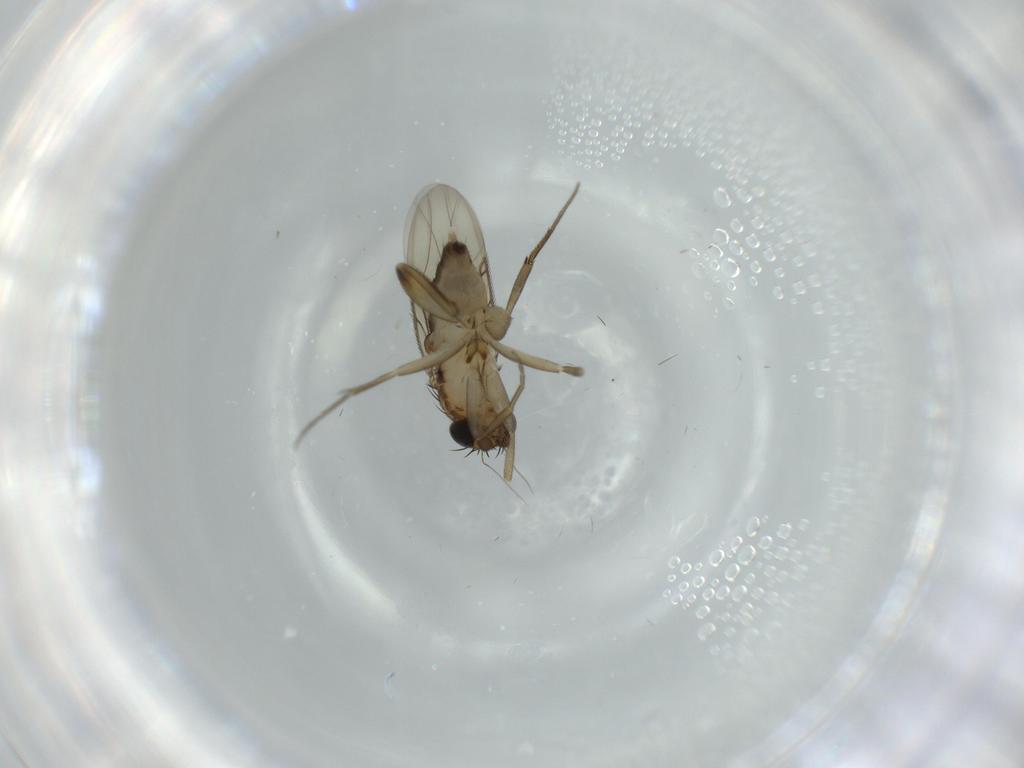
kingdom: Animalia
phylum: Arthropoda
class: Insecta
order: Diptera
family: Phoridae
